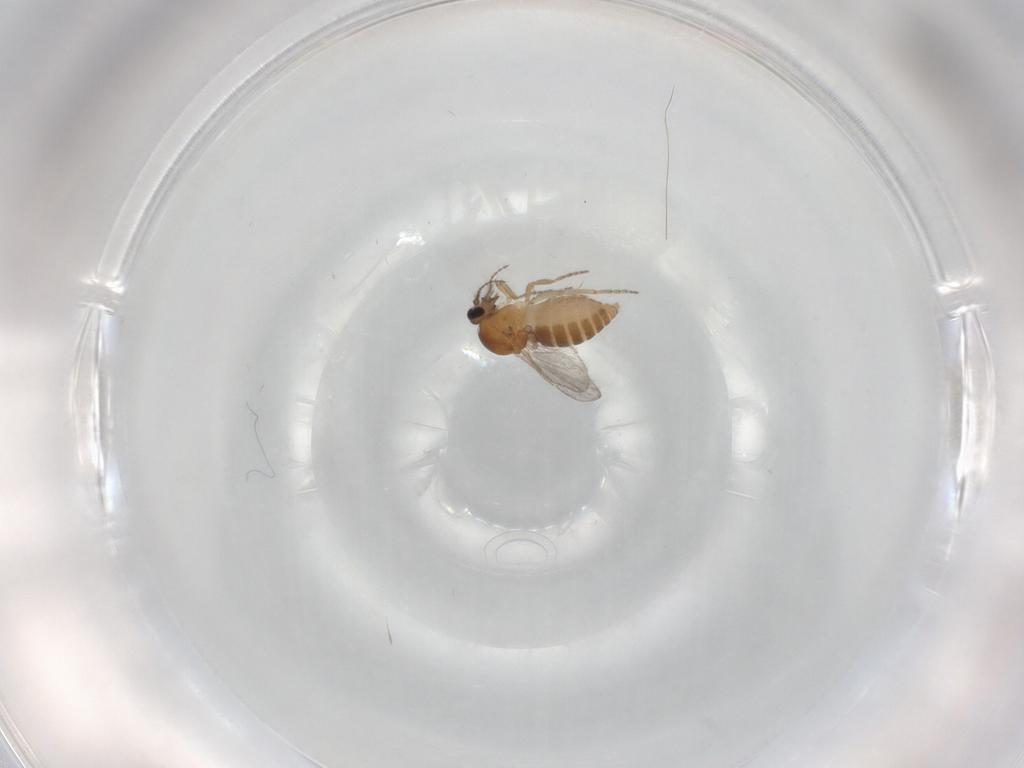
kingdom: Animalia
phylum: Arthropoda
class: Insecta
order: Diptera
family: Ceratopogonidae
